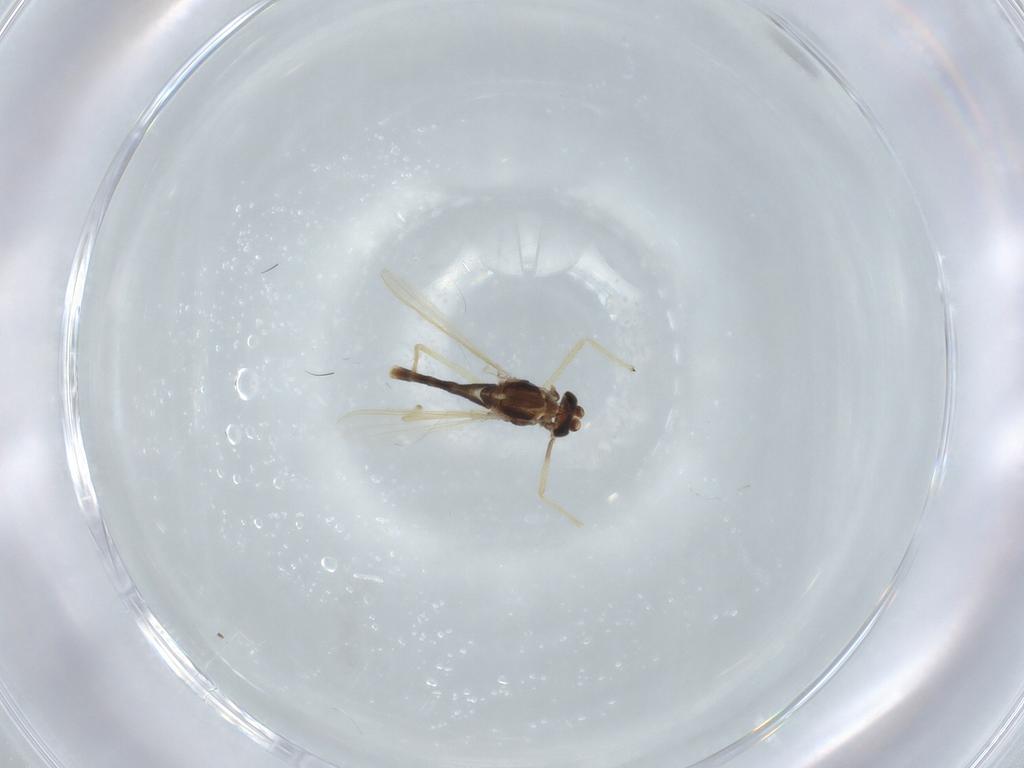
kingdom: Animalia
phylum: Arthropoda
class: Insecta
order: Diptera
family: Chironomidae
